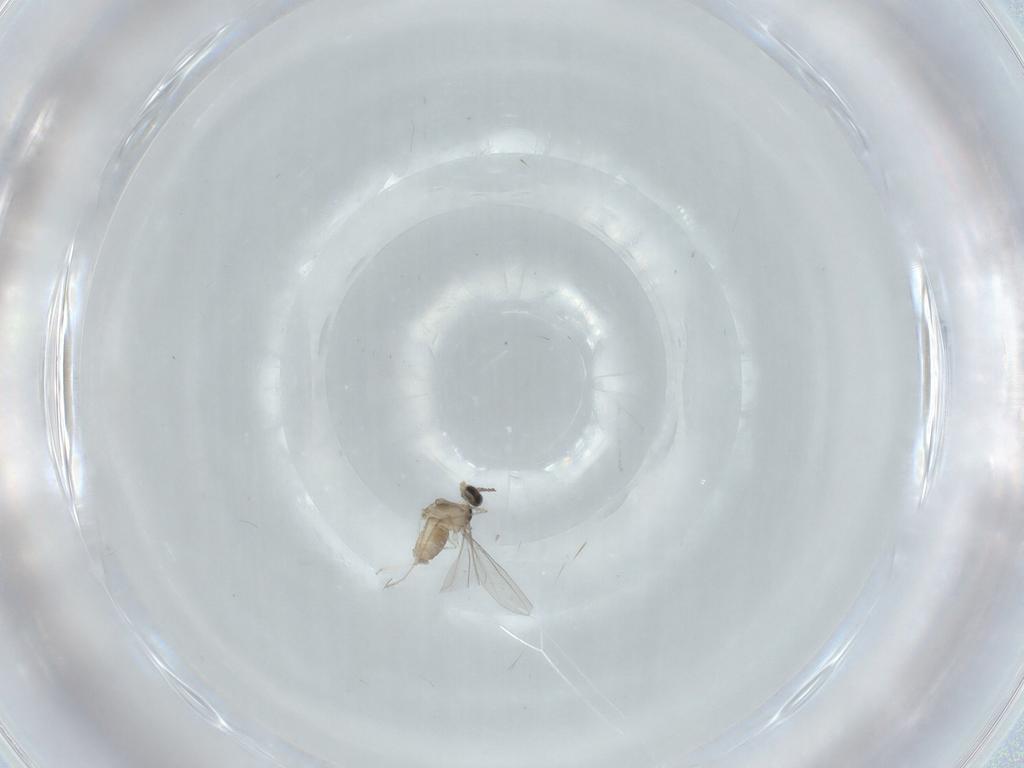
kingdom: Animalia
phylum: Arthropoda
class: Insecta
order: Diptera
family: Cecidomyiidae
